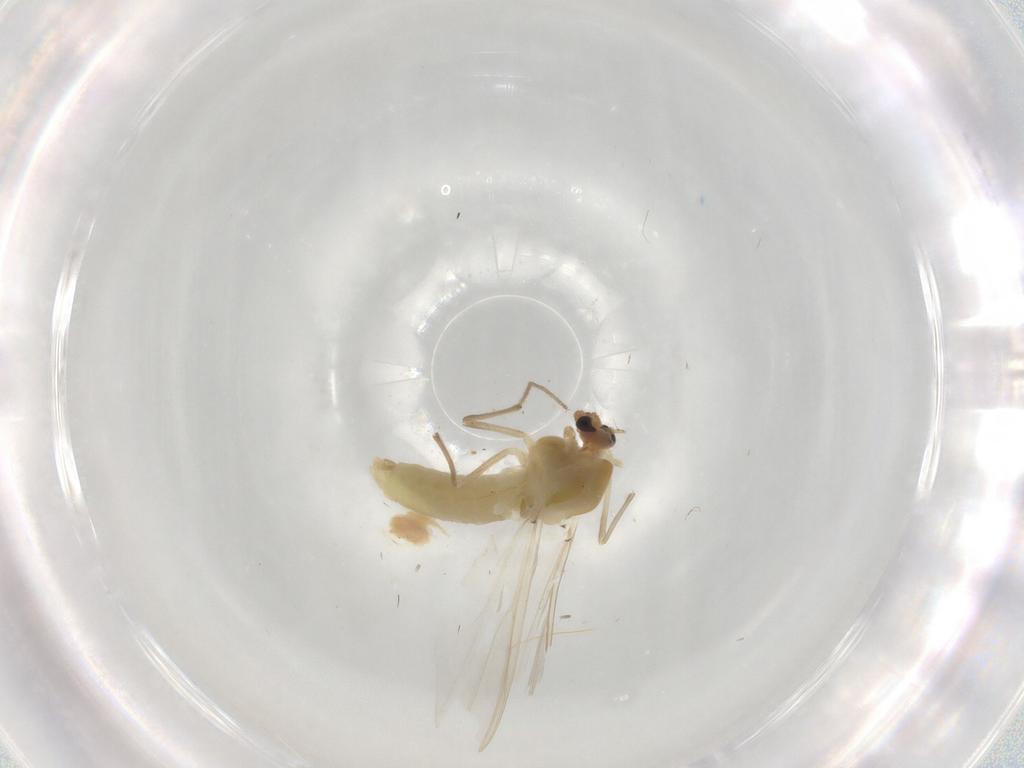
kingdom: Animalia
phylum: Arthropoda
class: Insecta
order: Diptera
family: Chironomidae
